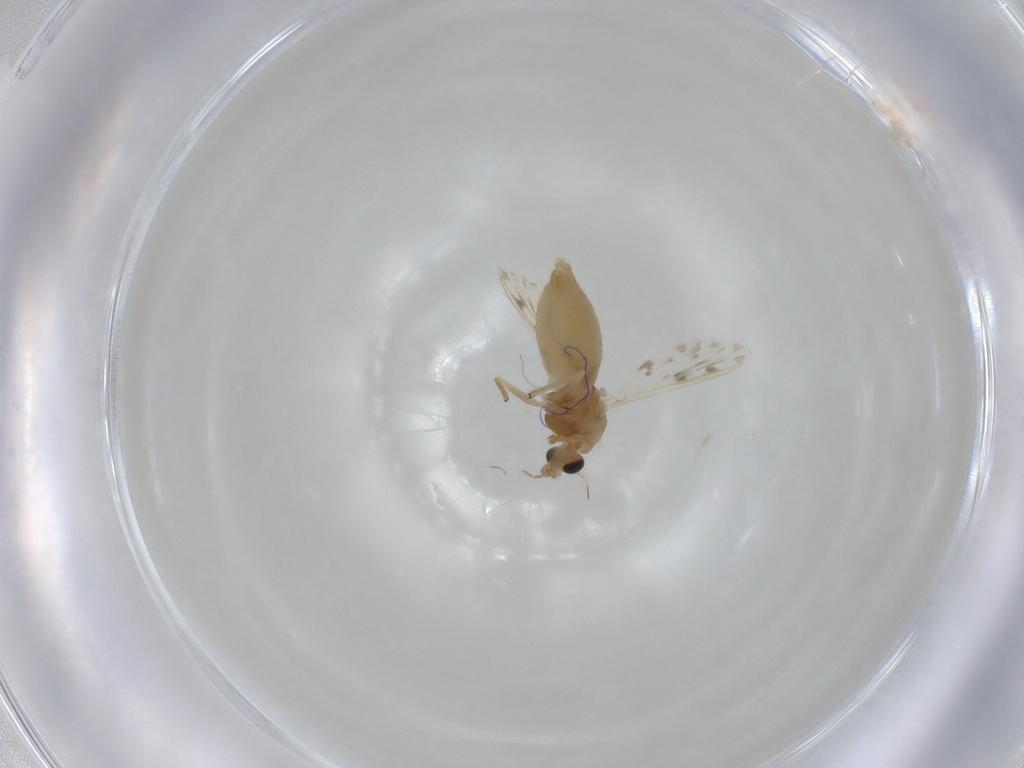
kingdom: Animalia
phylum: Arthropoda
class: Insecta
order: Diptera
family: Chironomidae
